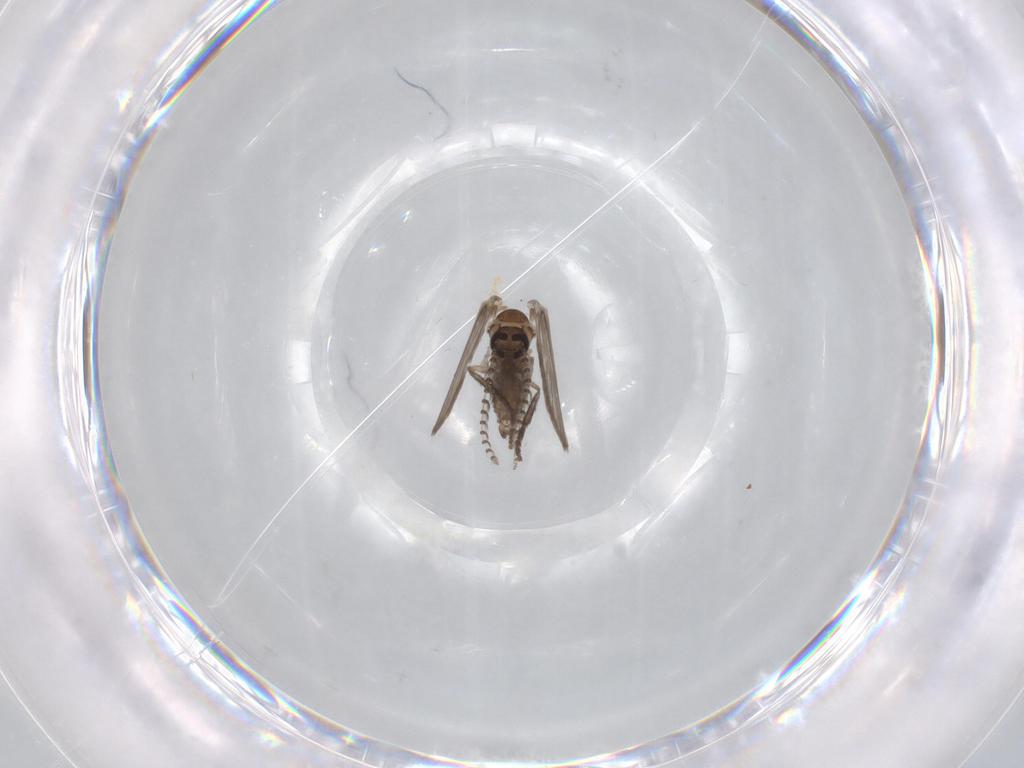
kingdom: Animalia
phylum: Arthropoda
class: Insecta
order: Diptera
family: Psychodidae
